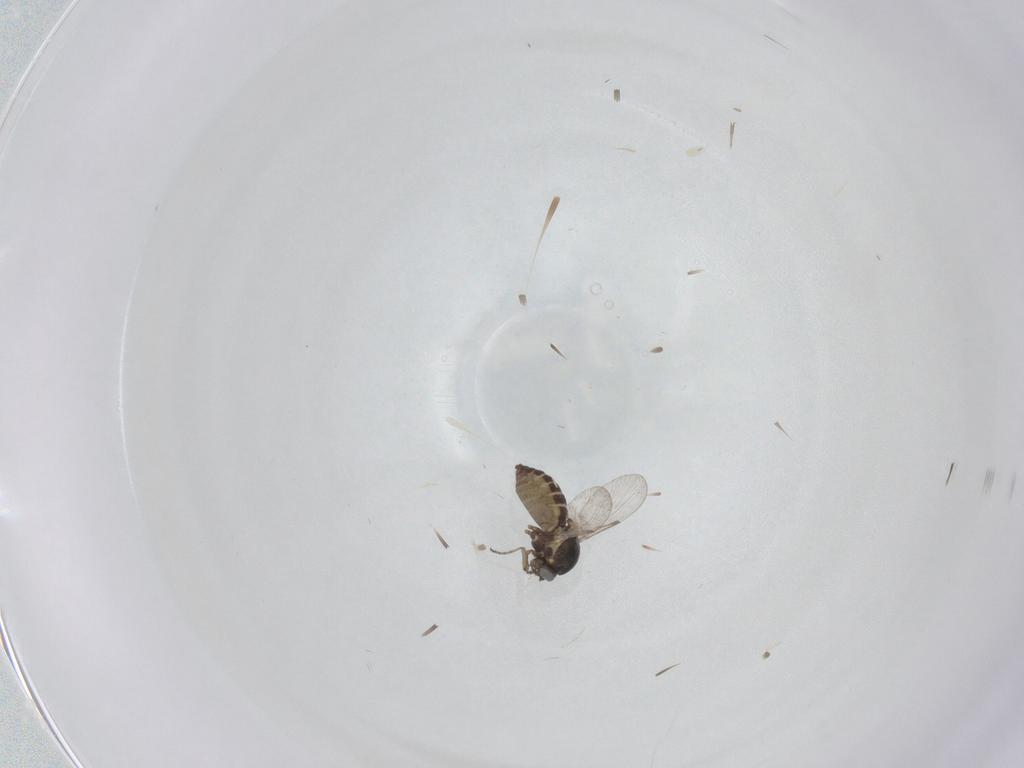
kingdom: Animalia
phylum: Arthropoda
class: Insecta
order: Diptera
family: Ceratopogonidae
